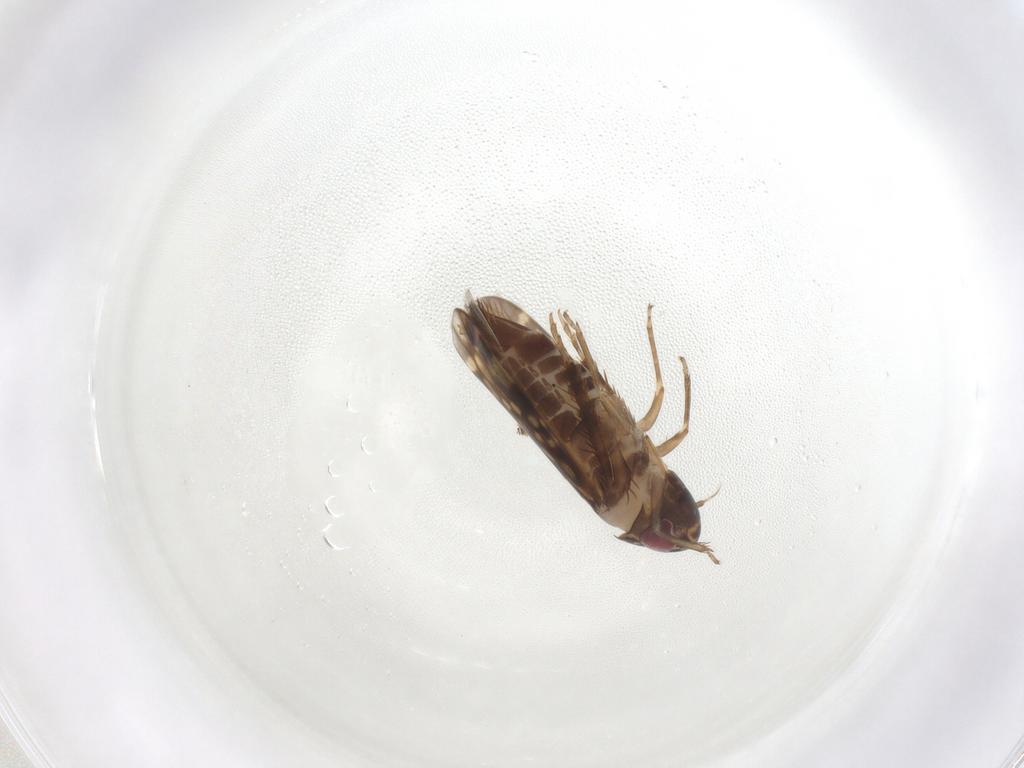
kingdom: Animalia
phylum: Arthropoda
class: Insecta
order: Hemiptera
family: Cicadellidae
